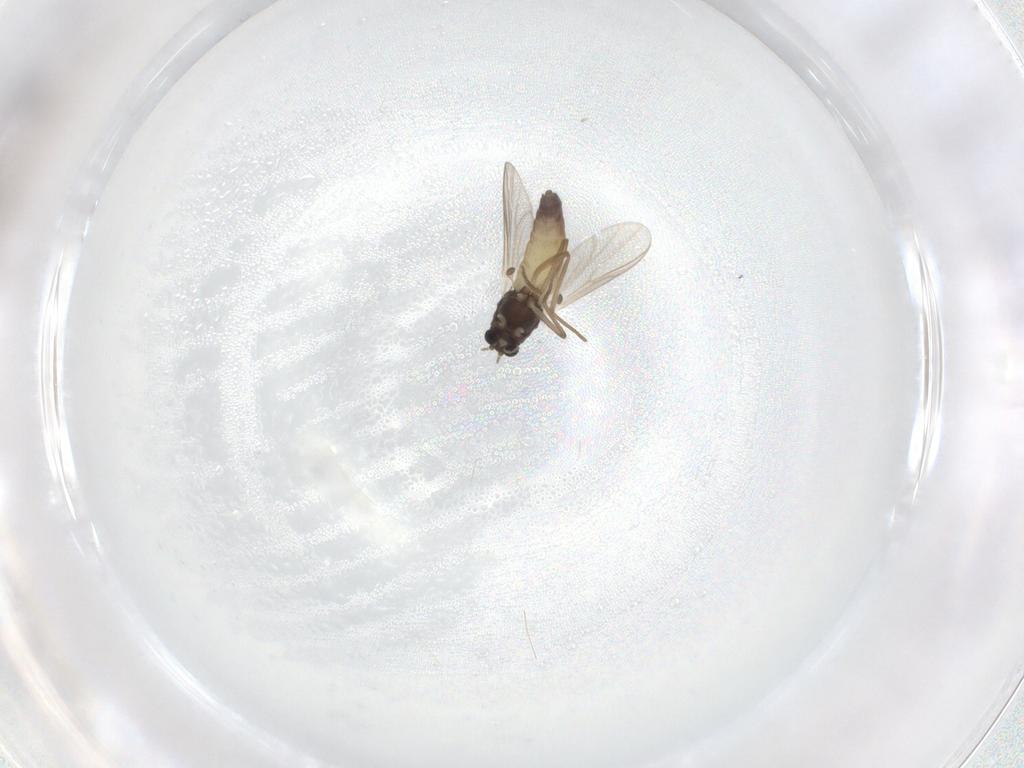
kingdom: Animalia
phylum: Arthropoda
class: Insecta
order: Diptera
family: Chironomidae
